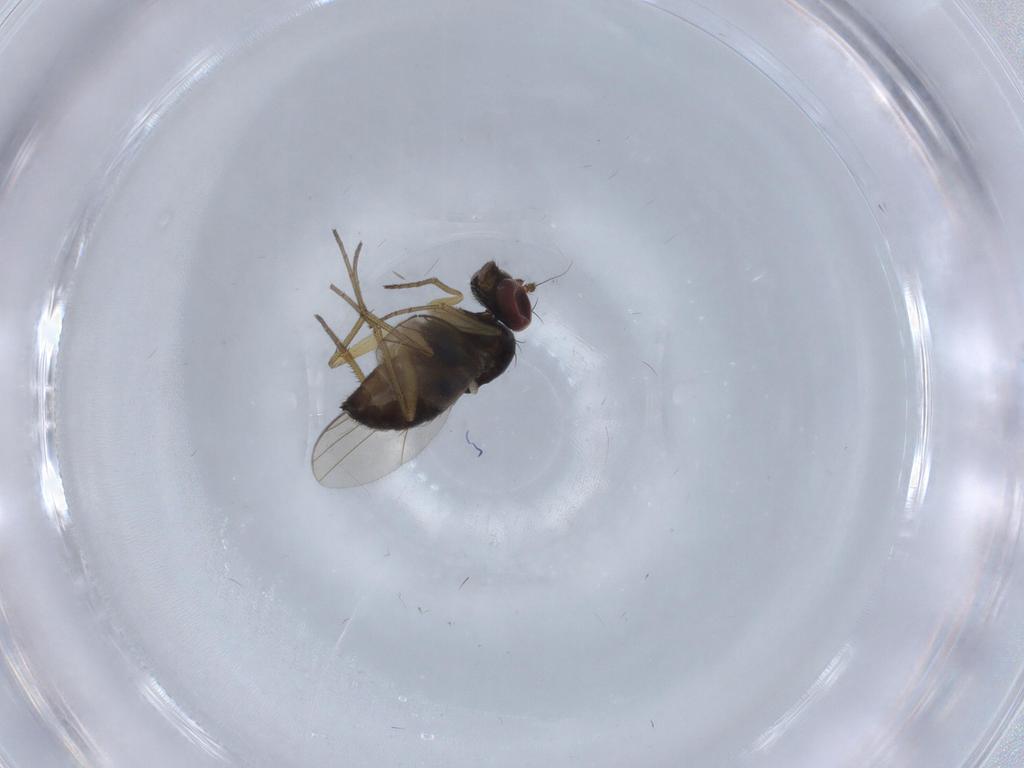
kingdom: Animalia
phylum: Arthropoda
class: Insecta
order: Diptera
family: Dolichopodidae
